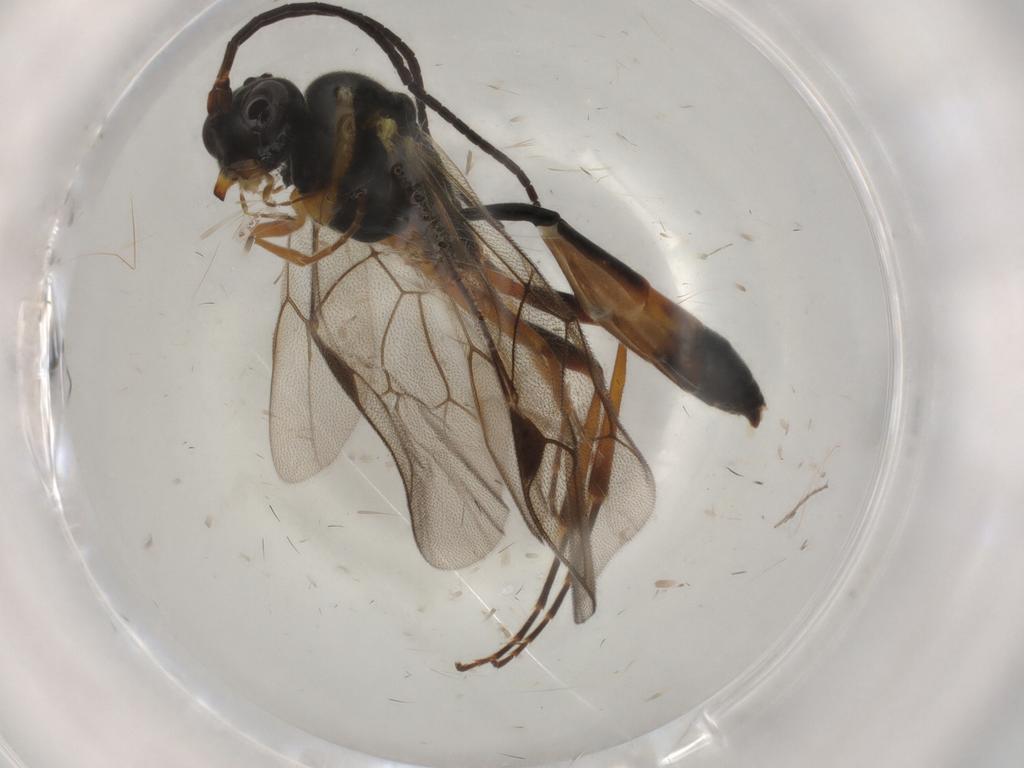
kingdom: Animalia
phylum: Arthropoda
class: Insecta
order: Hymenoptera
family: Ichneumonidae
